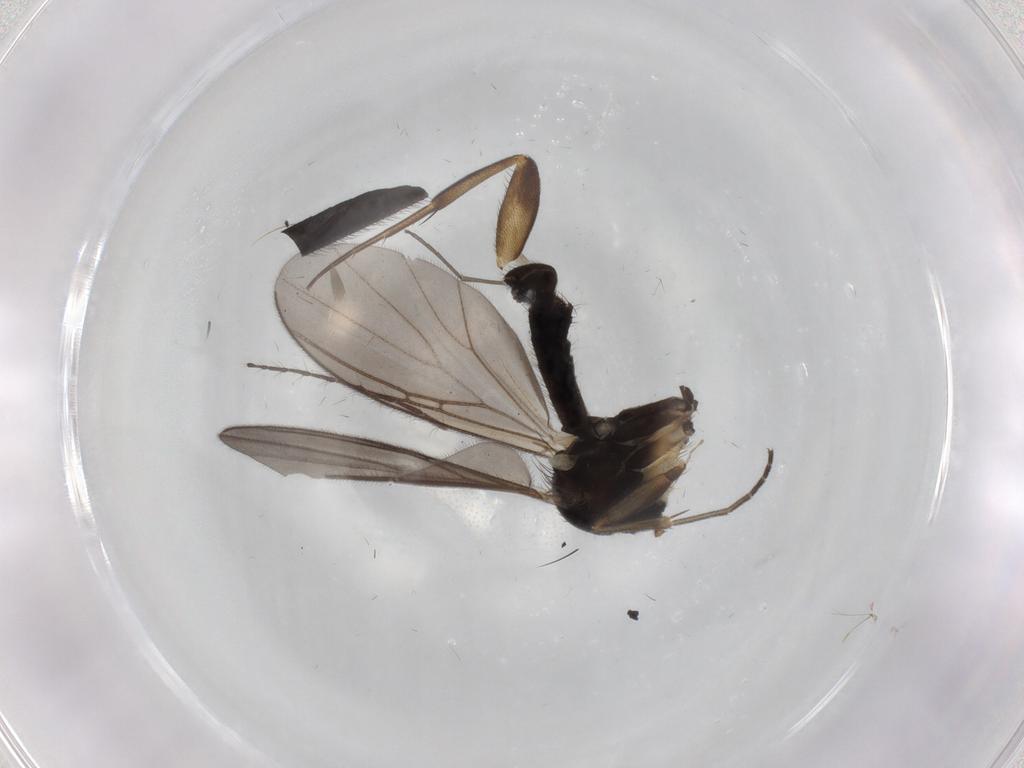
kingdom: Animalia
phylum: Arthropoda
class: Insecta
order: Diptera
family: Mycetophilidae
